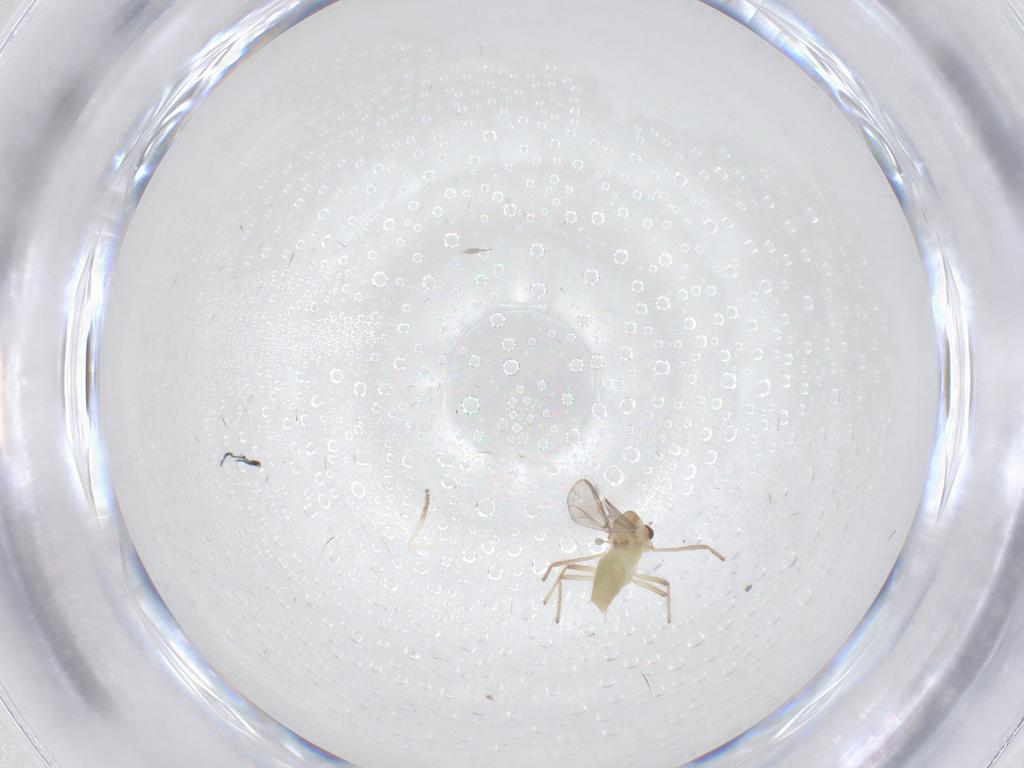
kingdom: Animalia
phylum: Arthropoda
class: Insecta
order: Diptera
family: Chironomidae
